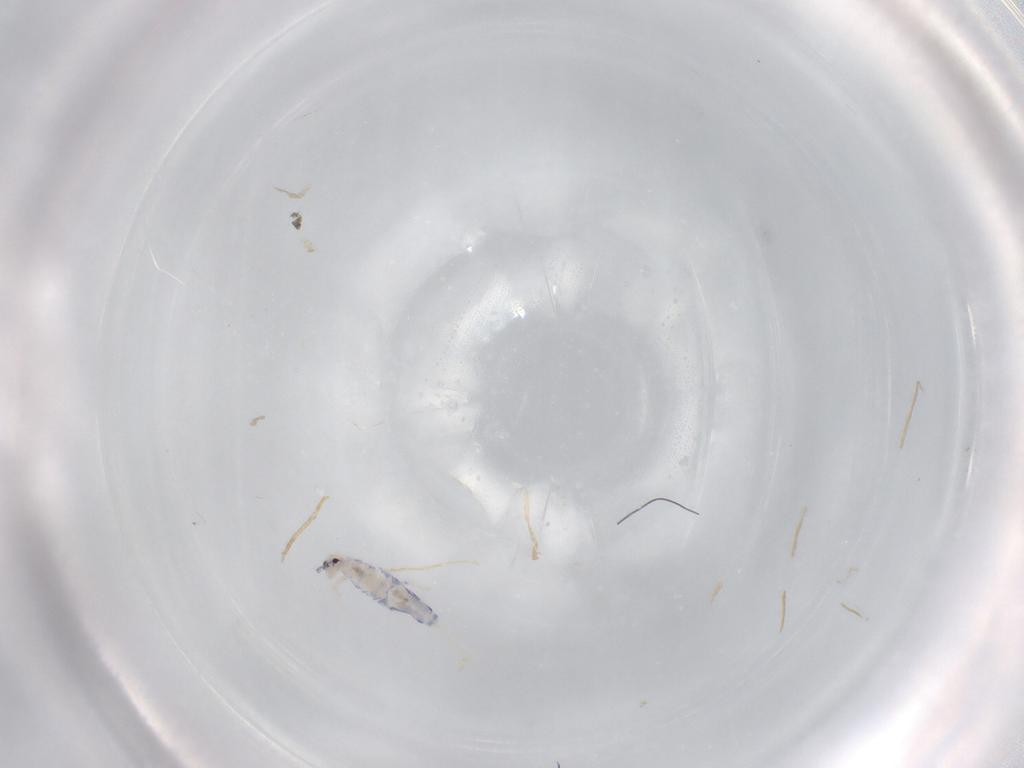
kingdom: Animalia
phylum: Arthropoda
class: Collembola
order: Entomobryomorpha
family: Entomobryidae
